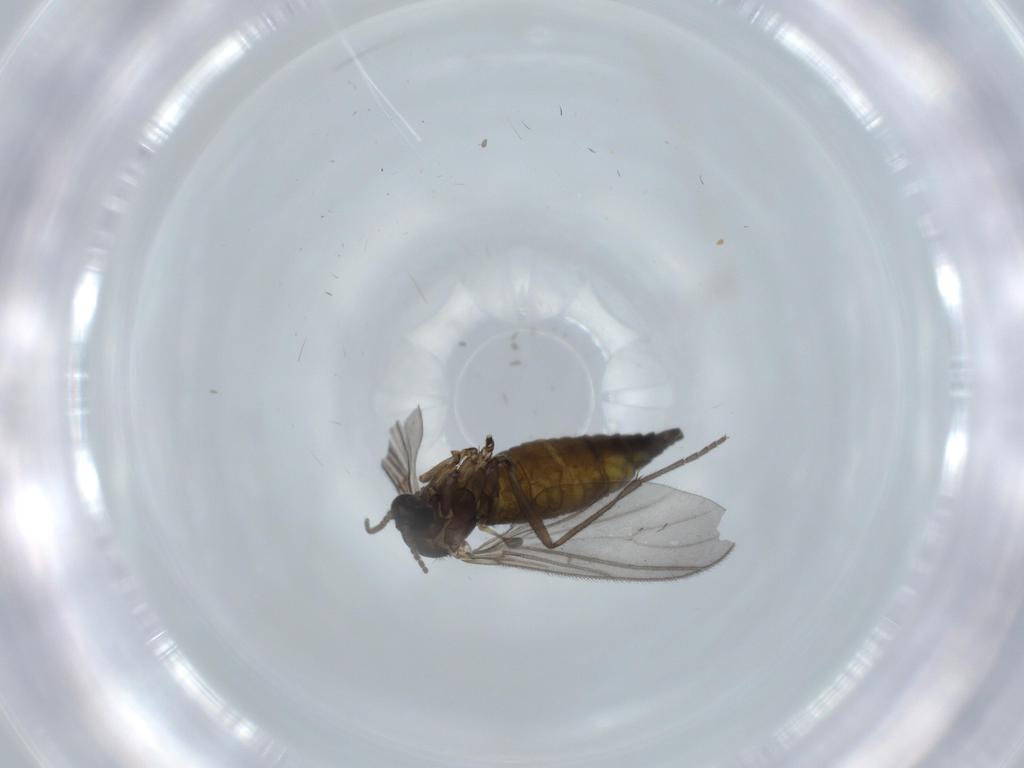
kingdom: Animalia
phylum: Arthropoda
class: Insecta
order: Diptera
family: Sciaridae
